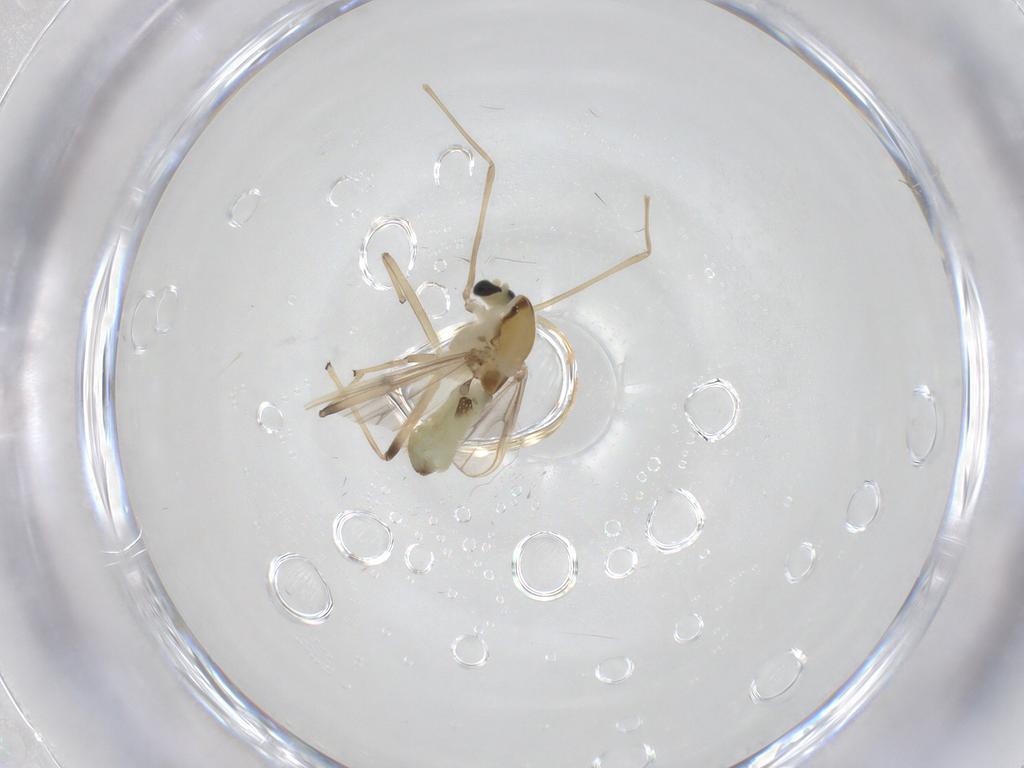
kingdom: Animalia
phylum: Arthropoda
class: Insecta
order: Diptera
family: Chironomidae
